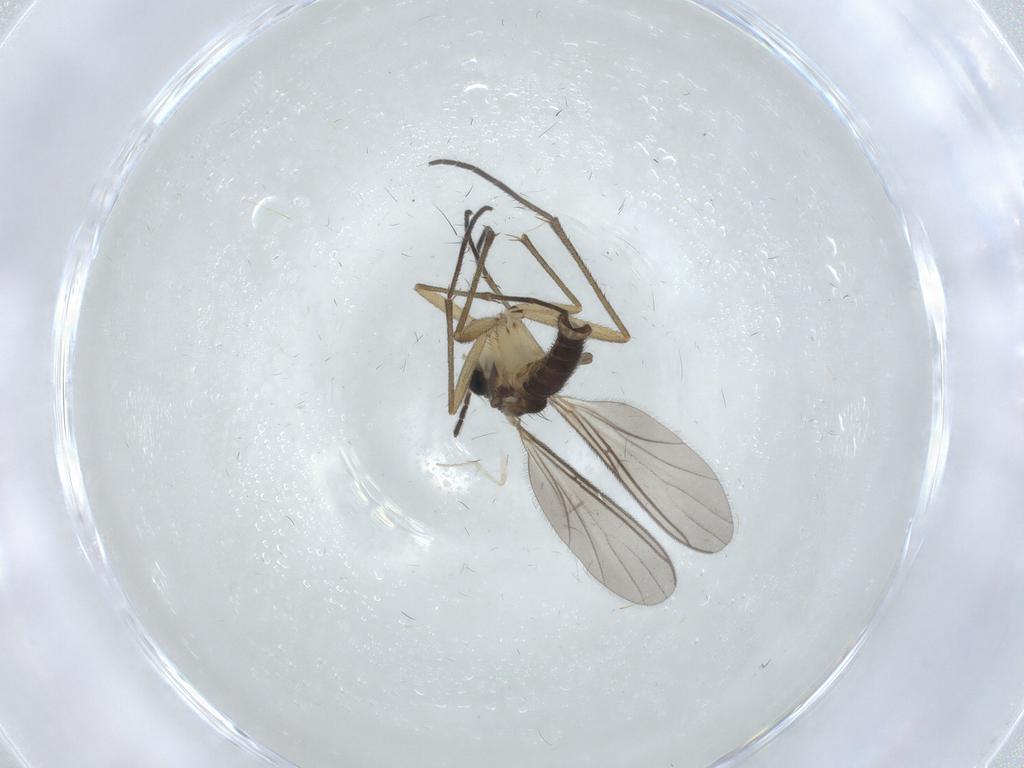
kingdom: Animalia
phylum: Arthropoda
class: Insecta
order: Diptera
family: Sciaridae
